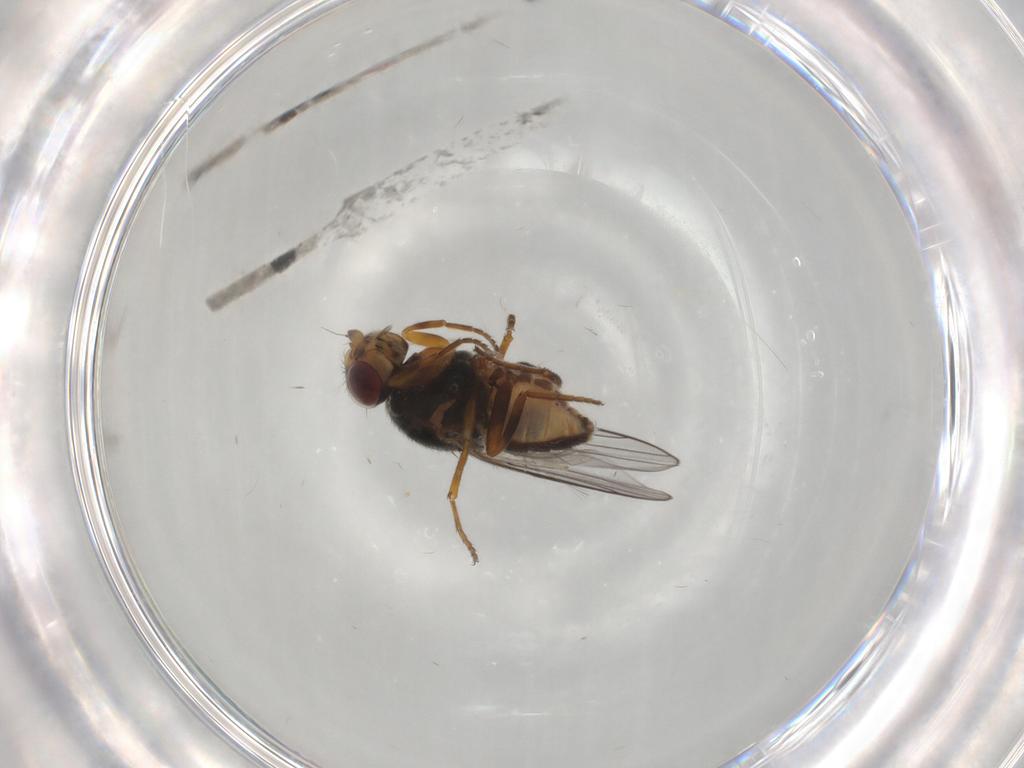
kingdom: Animalia
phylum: Arthropoda
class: Insecta
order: Diptera
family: Chloropidae
